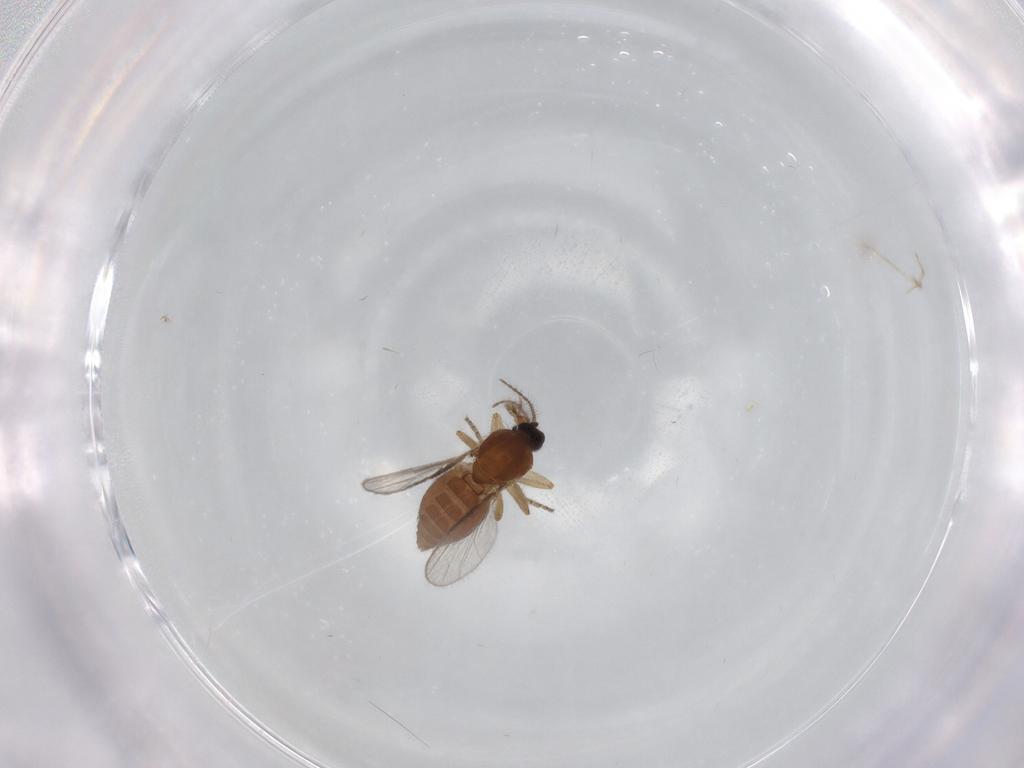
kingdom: Animalia
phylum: Arthropoda
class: Insecta
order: Diptera
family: Ceratopogonidae
